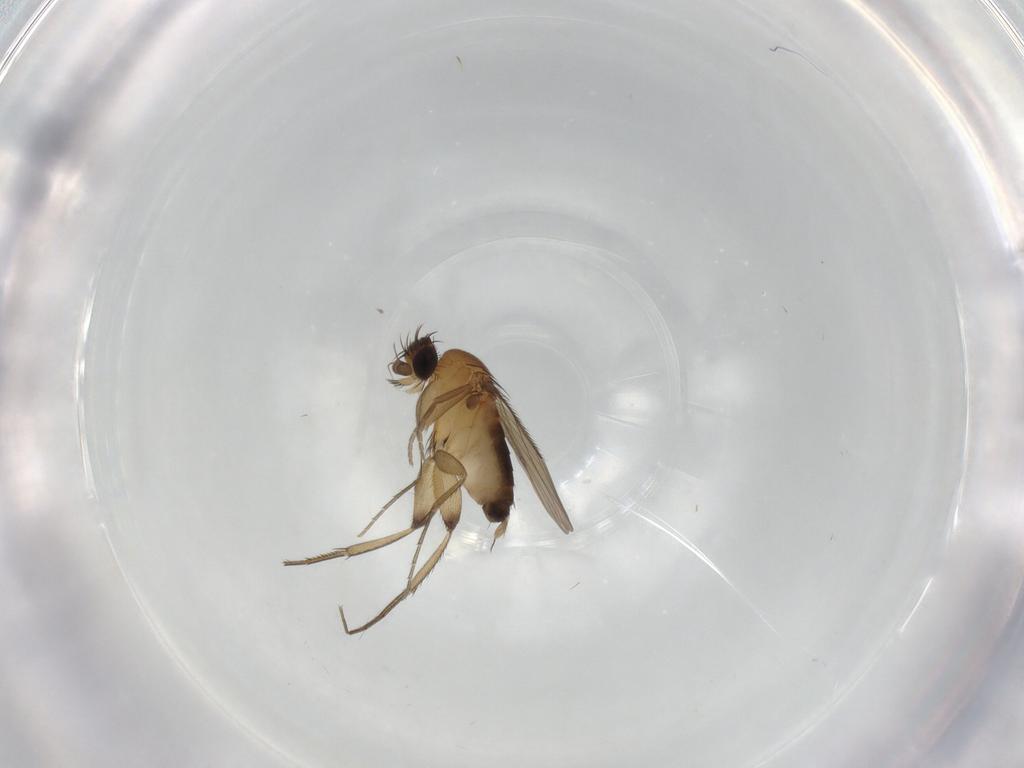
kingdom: Animalia
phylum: Arthropoda
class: Insecta
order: Diptera
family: Phoridae
